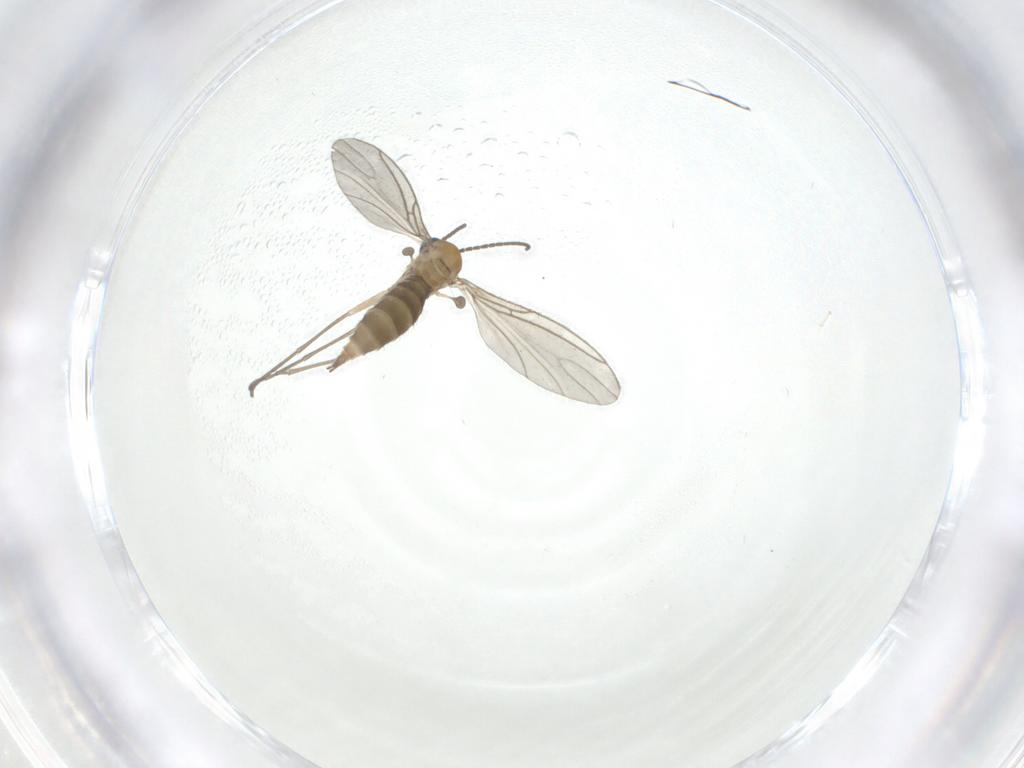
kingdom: Animalia
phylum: Arthropoda
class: Insecta
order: Diptera
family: Sciaridae
